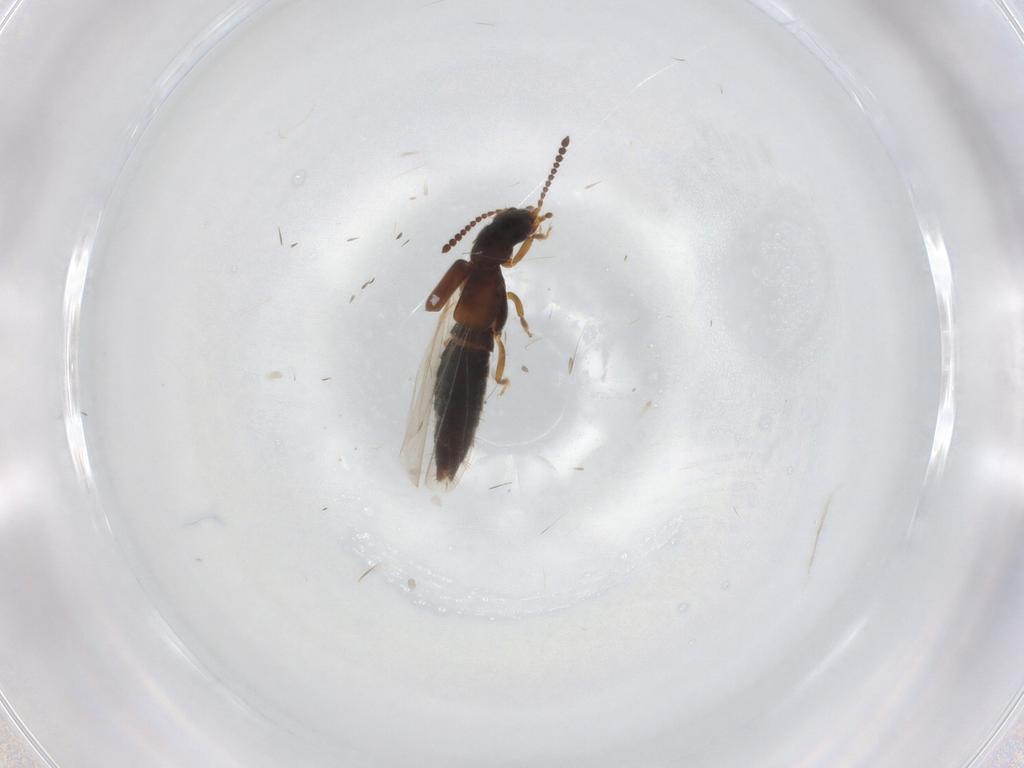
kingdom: Animalia
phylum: Arthropoda
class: Insecta
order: Coleoptera
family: Staphylinidae
